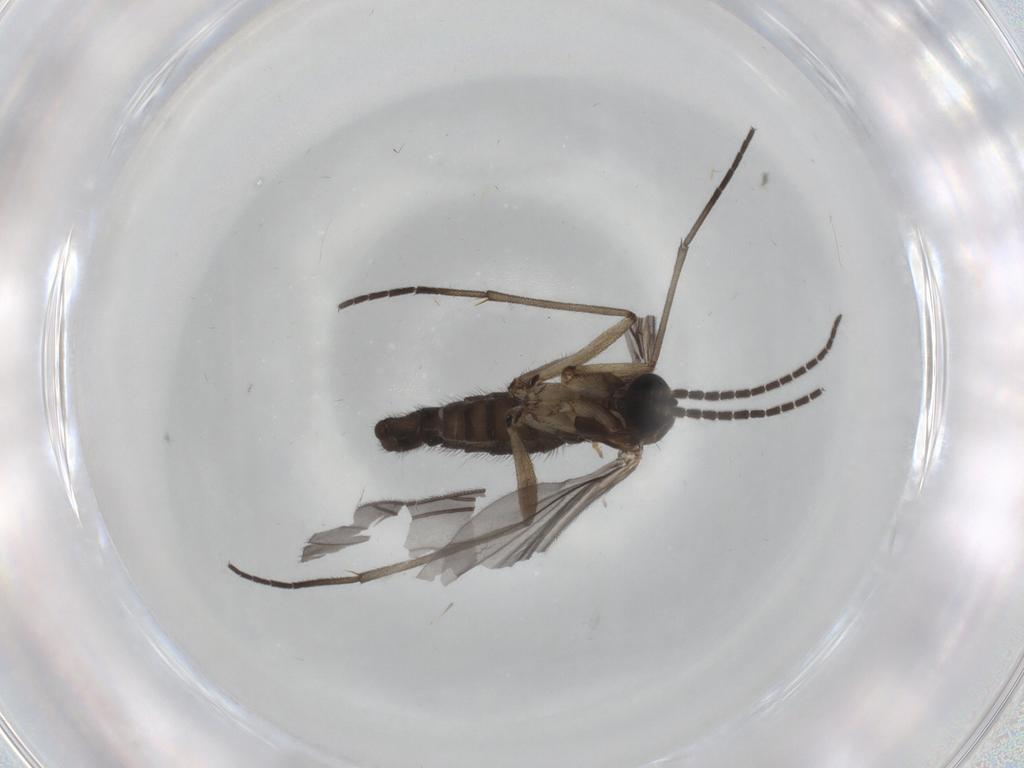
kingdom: Animalia
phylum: Arthropoda
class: Insecta
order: Diptera
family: Sciaridae
